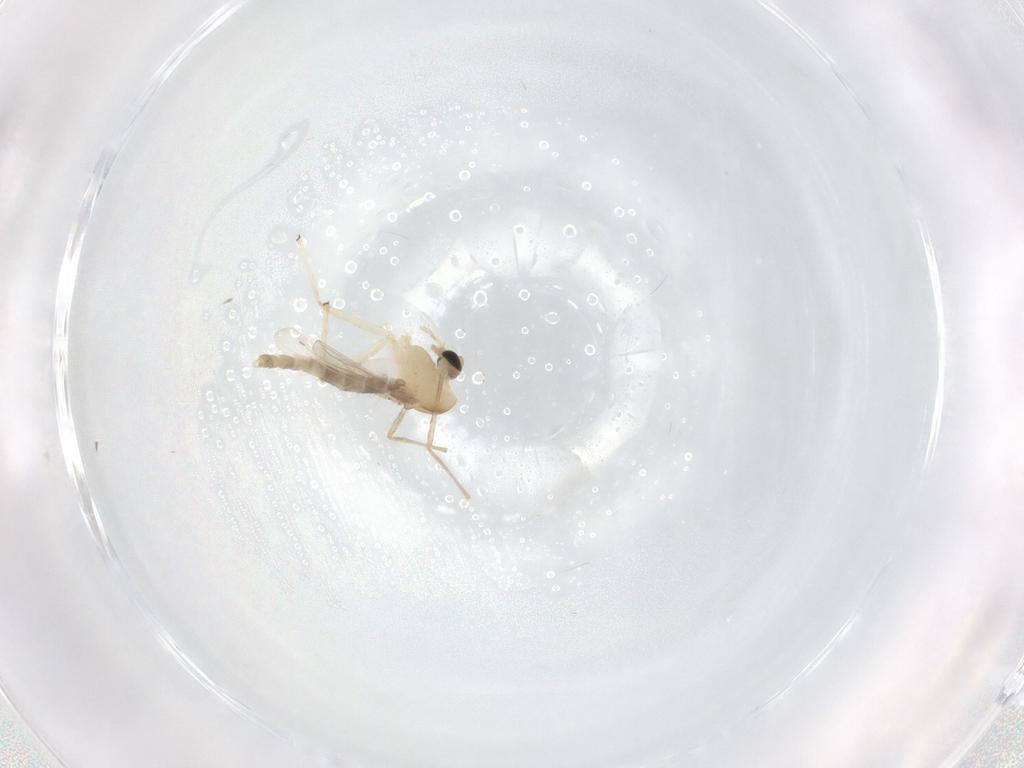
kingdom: Animalia
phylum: Arthropoda
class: Insecta
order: Diptera
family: Chironomidae
